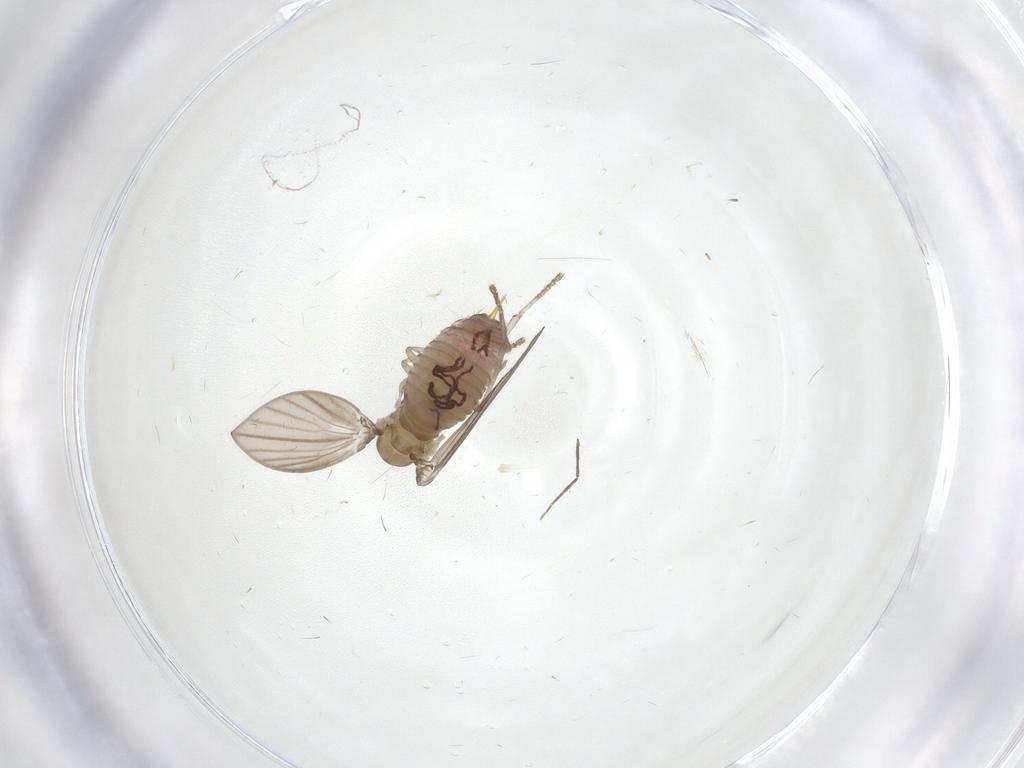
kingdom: Animalia
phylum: Arthropoda
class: Insecta
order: Diptera
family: Psychodidae
